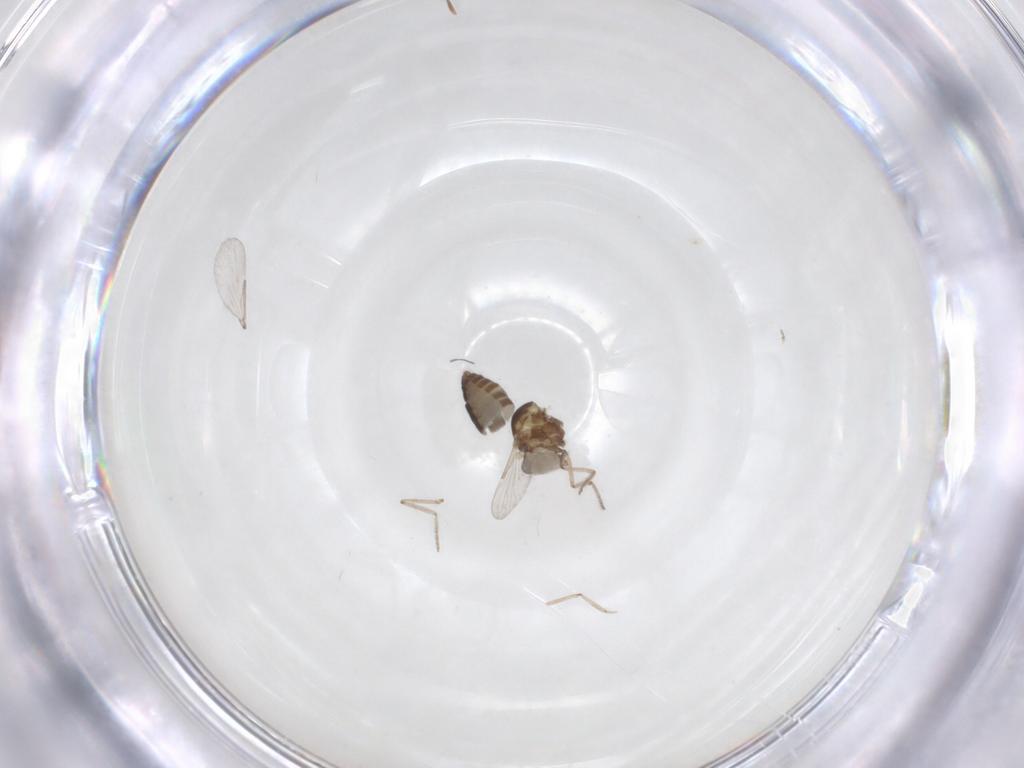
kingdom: Animalia
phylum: Arthropoda
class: Insecta
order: Diptera
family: Ceratopogonidae
